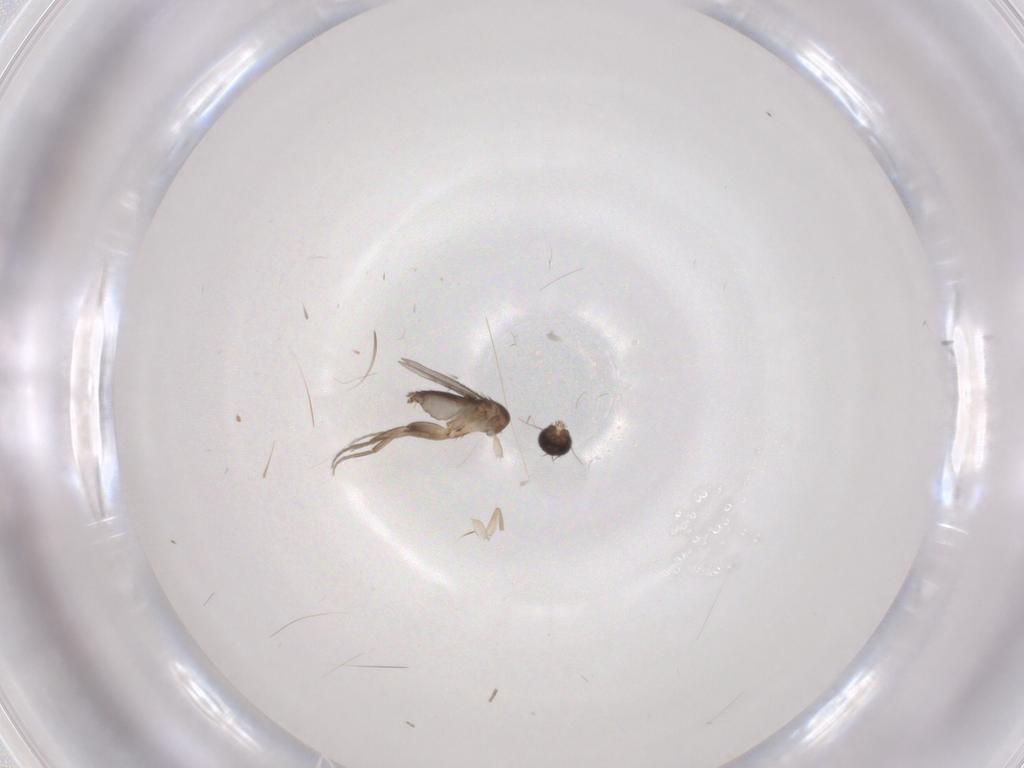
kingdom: Animalia
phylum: Arthropoda
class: Insecta
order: Diptera
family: Phoridae
